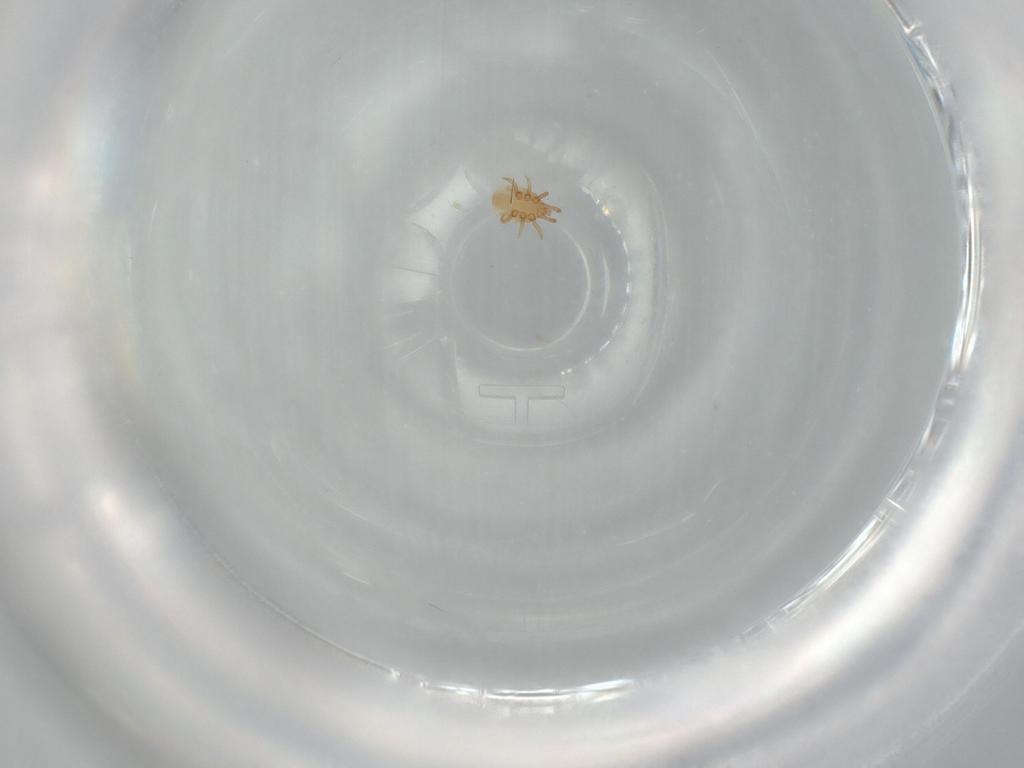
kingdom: Animalia
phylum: Arthropoda
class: Arachnida
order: Mesostigmata
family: Dinychidae
